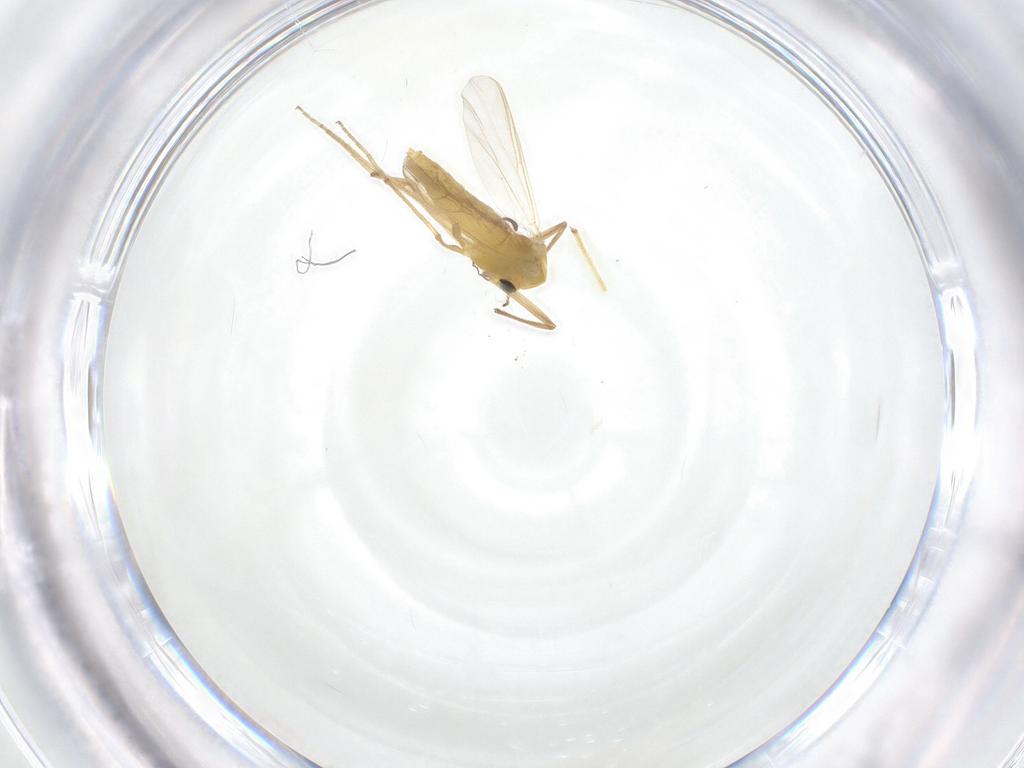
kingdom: Animalia
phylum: Arthropoda
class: Insecta
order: Diptera
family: Chironomidae
